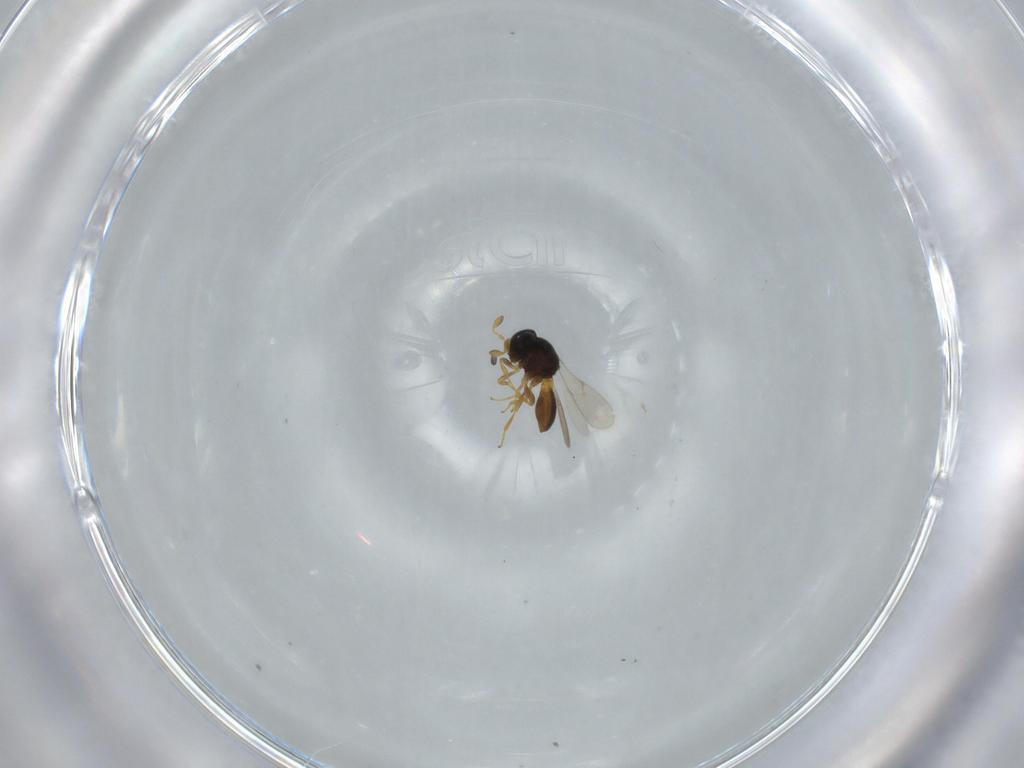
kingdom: Animalia
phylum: Arthropoda
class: Insecta
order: Hymenoptera
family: Scelionidae
